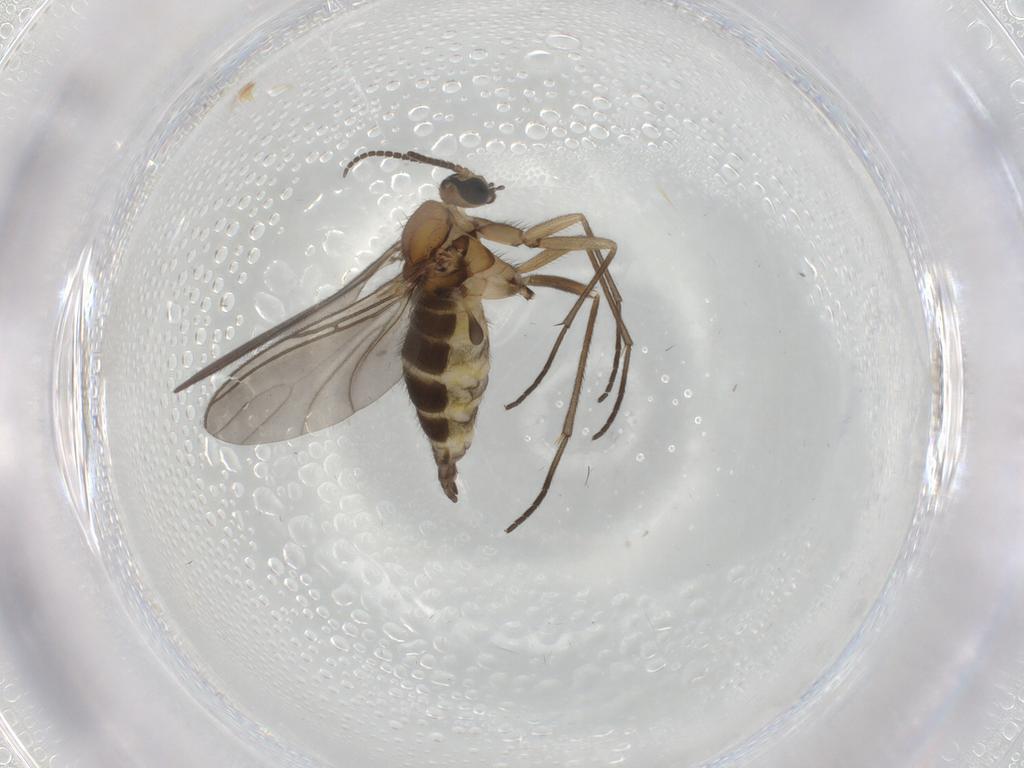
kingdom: Animalia
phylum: Arthropoda
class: Insecta
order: Diptera
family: Sciaridae
